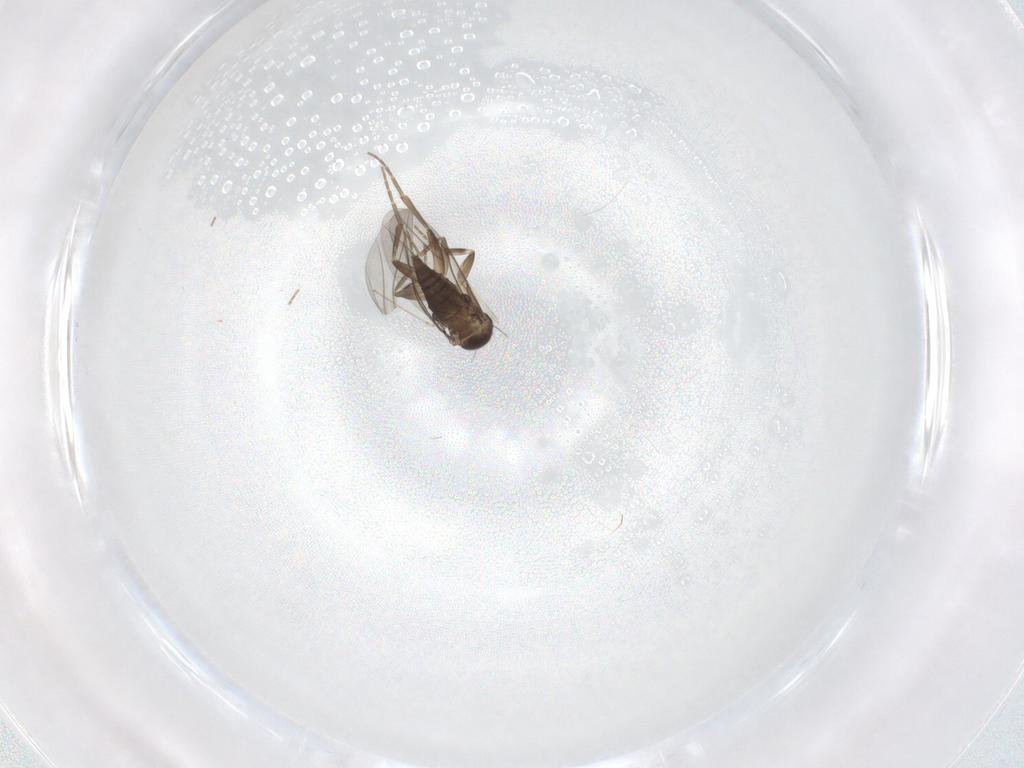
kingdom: Animalia
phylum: Arthropoda
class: Insecta
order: Diptera
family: Cecidomyiidae
